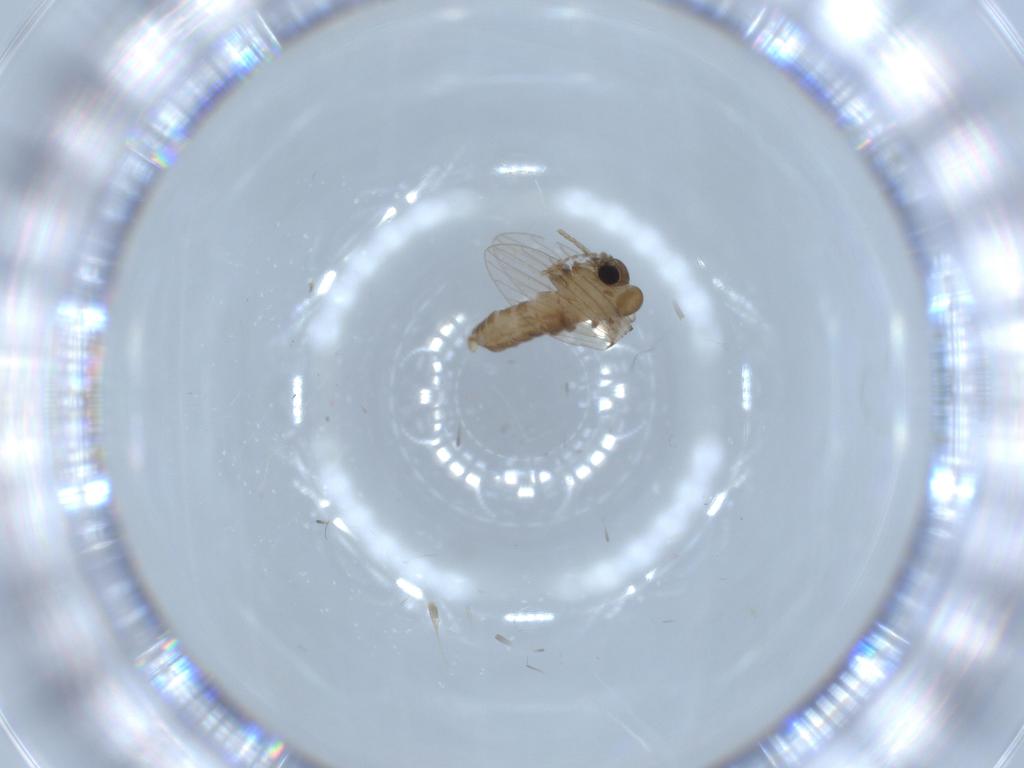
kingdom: Animalia
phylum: Arthropoda
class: Insecta
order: Diptera
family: Psychodidae
